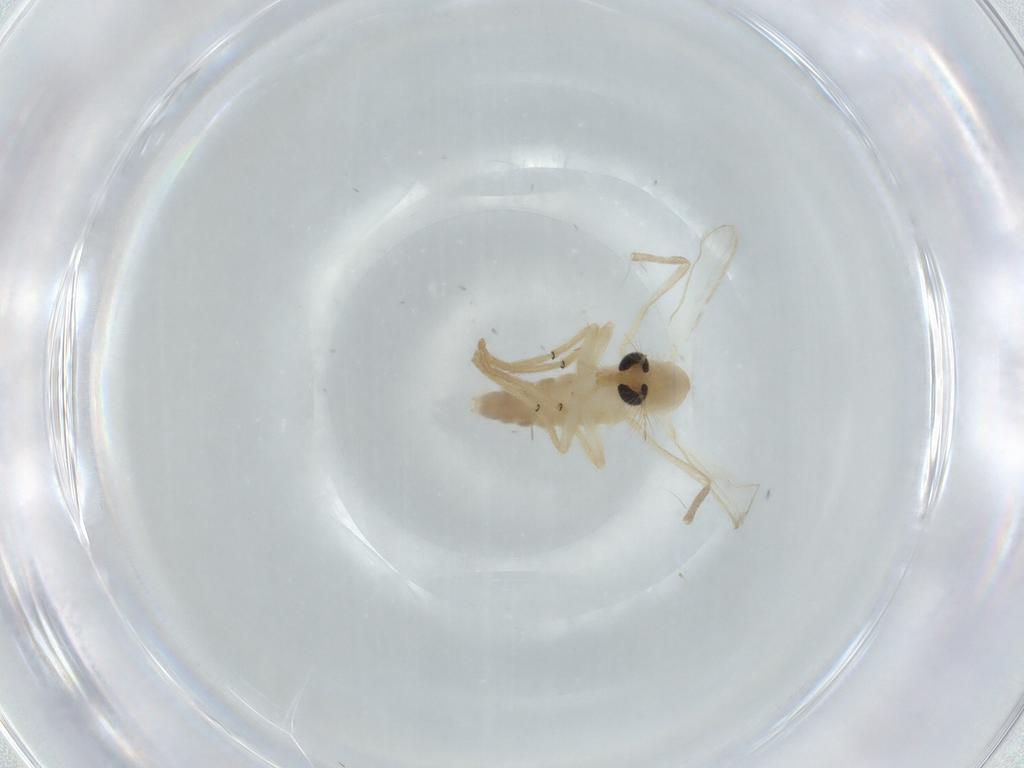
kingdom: Animalia
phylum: Arthropoda
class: Insecta
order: Diptera
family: Chironomidae
